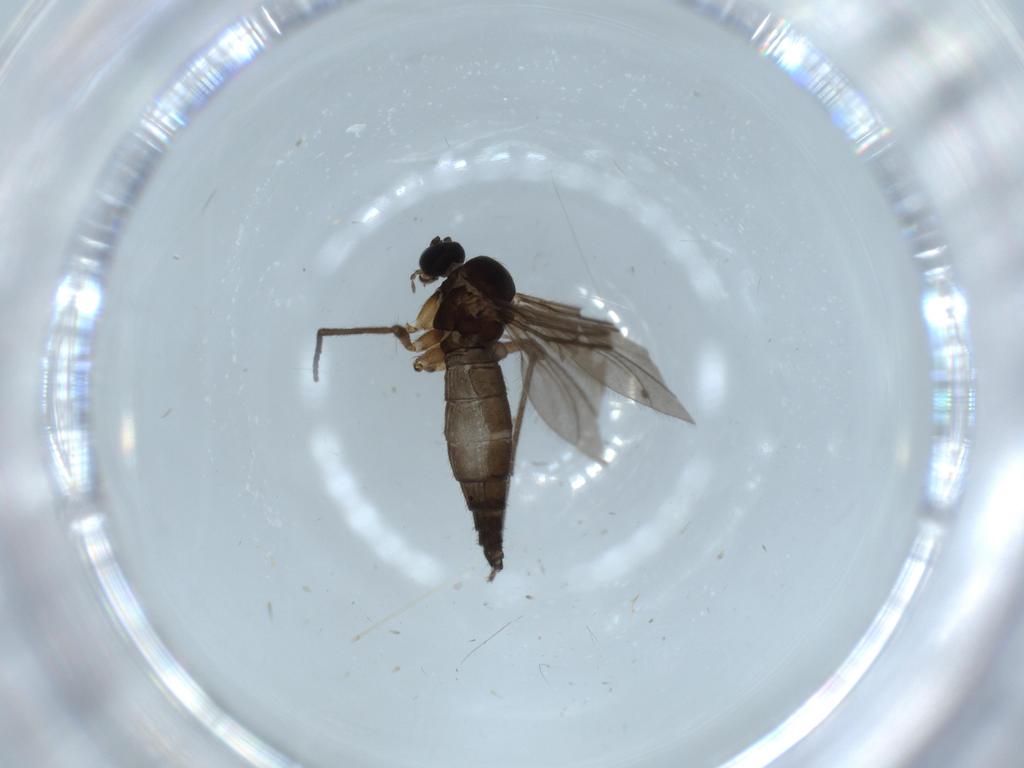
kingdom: Animalia
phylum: Arthropoda
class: Insecta
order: Diptera
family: Cecidomyiidae
